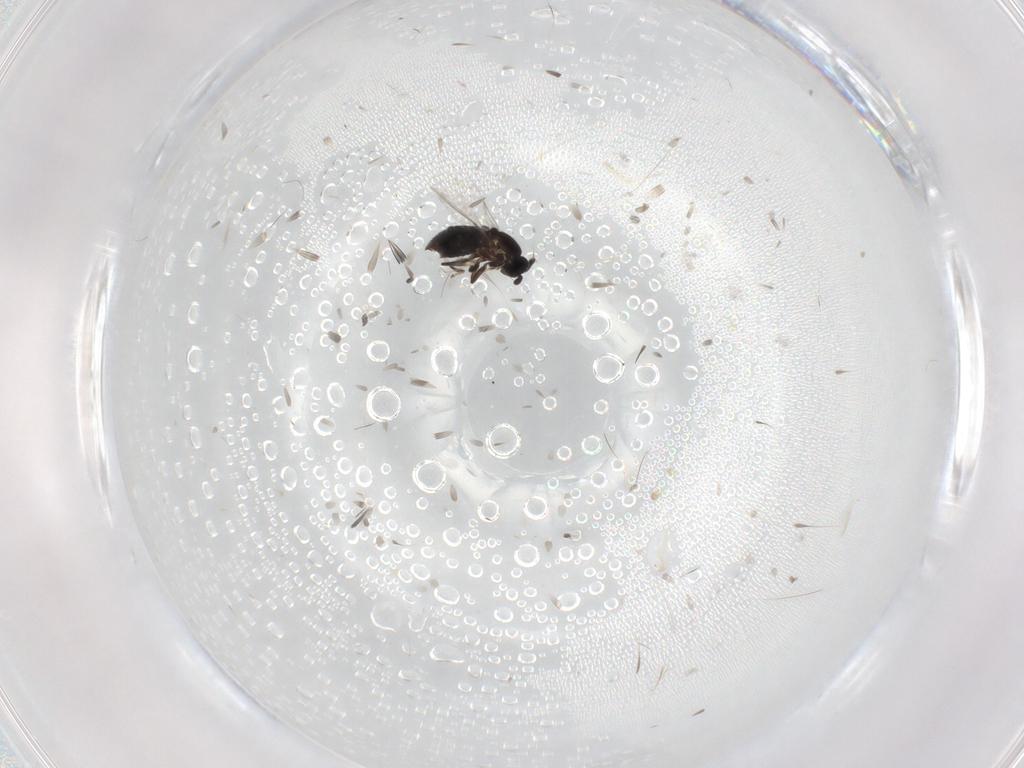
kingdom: Animalia
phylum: Arthropoda
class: Insecta
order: Diptera
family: Scatopsidae
